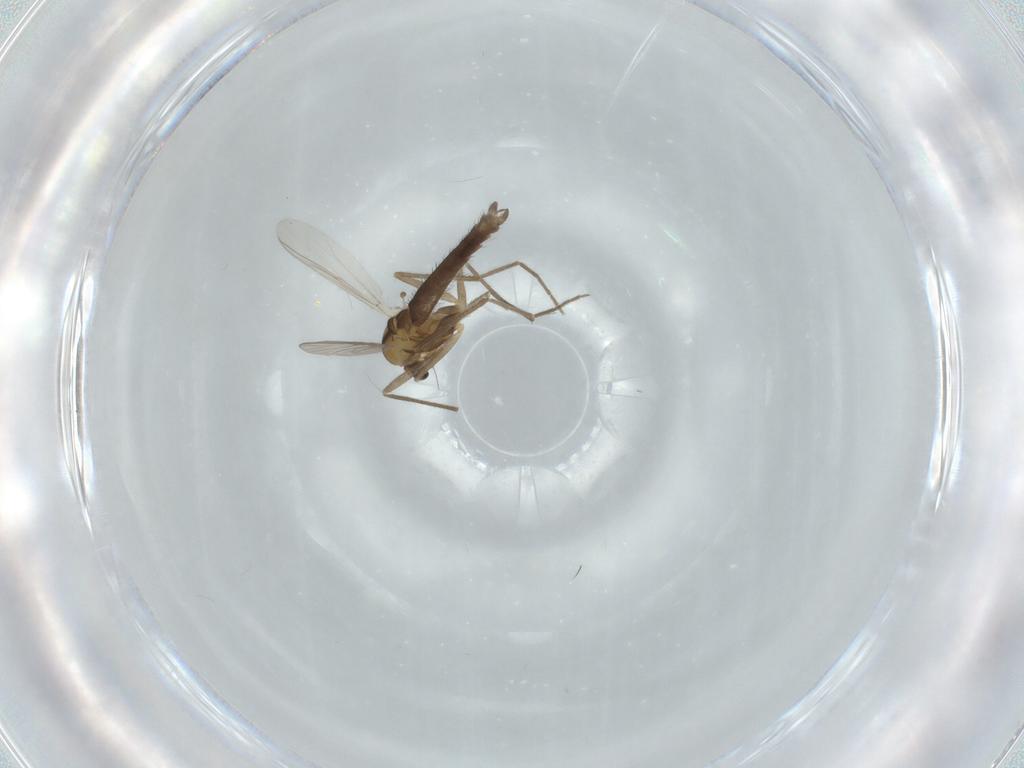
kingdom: Animalia
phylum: Arthropoda
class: Insecta
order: Diptera
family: Chironomidae
